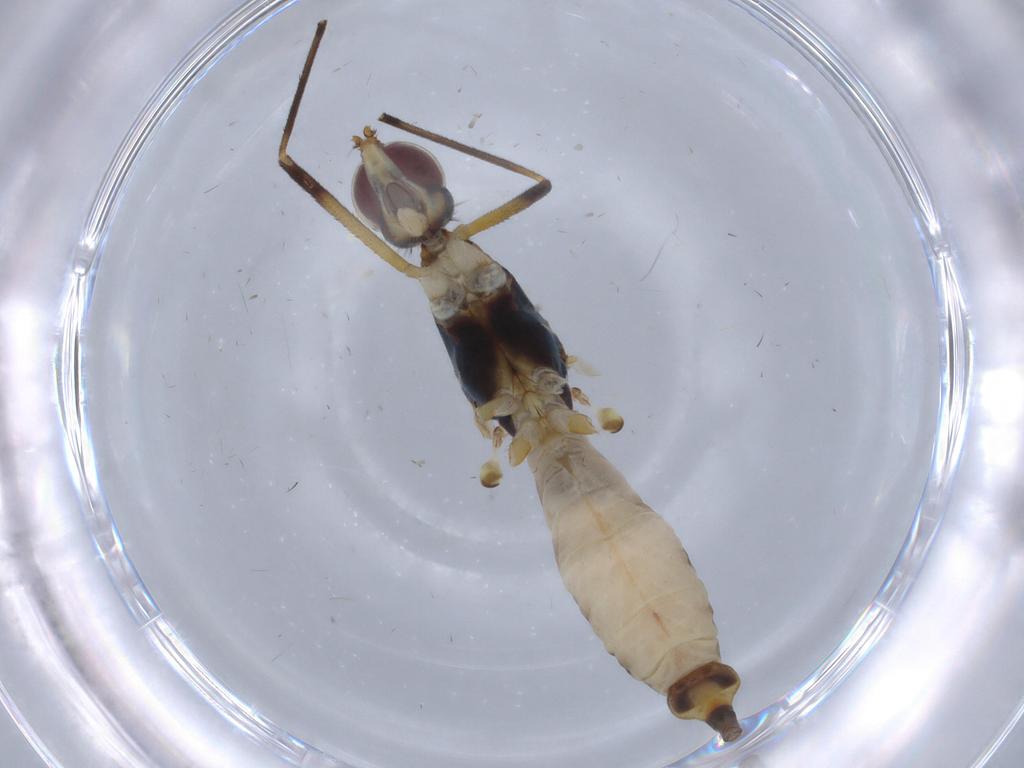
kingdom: Animalia
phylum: Arthropoda
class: Insecta
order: Diptera
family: Micropezidae
